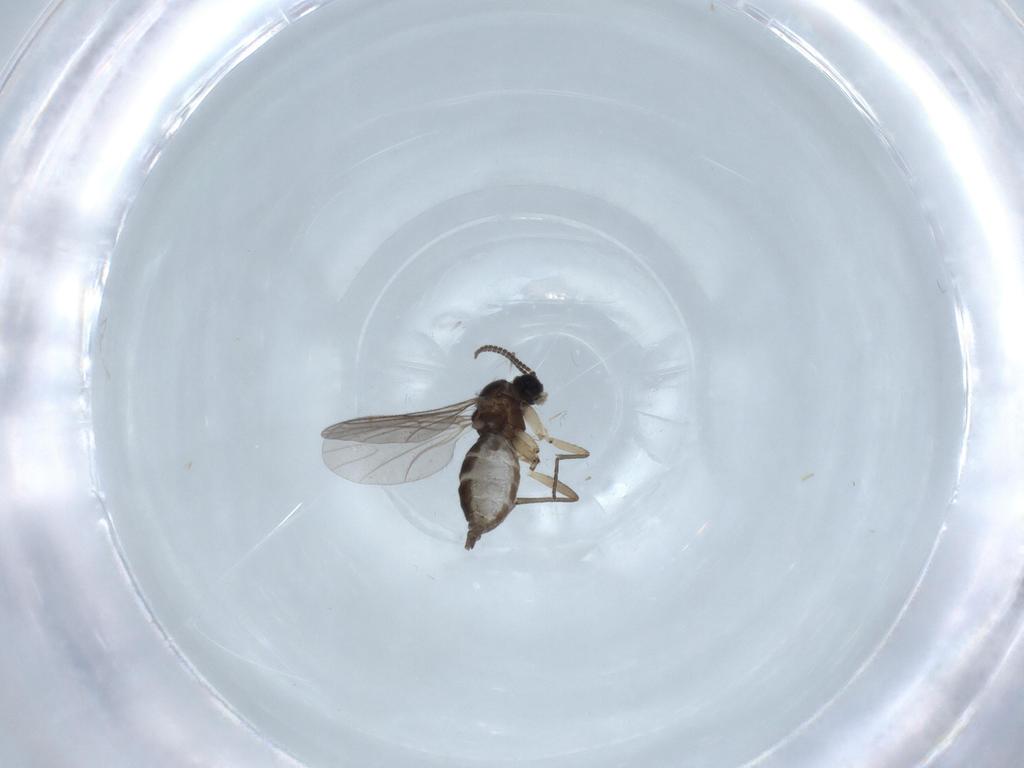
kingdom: Animalia
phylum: Arthropoda
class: Insecta
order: Diptera
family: Sciaridae
